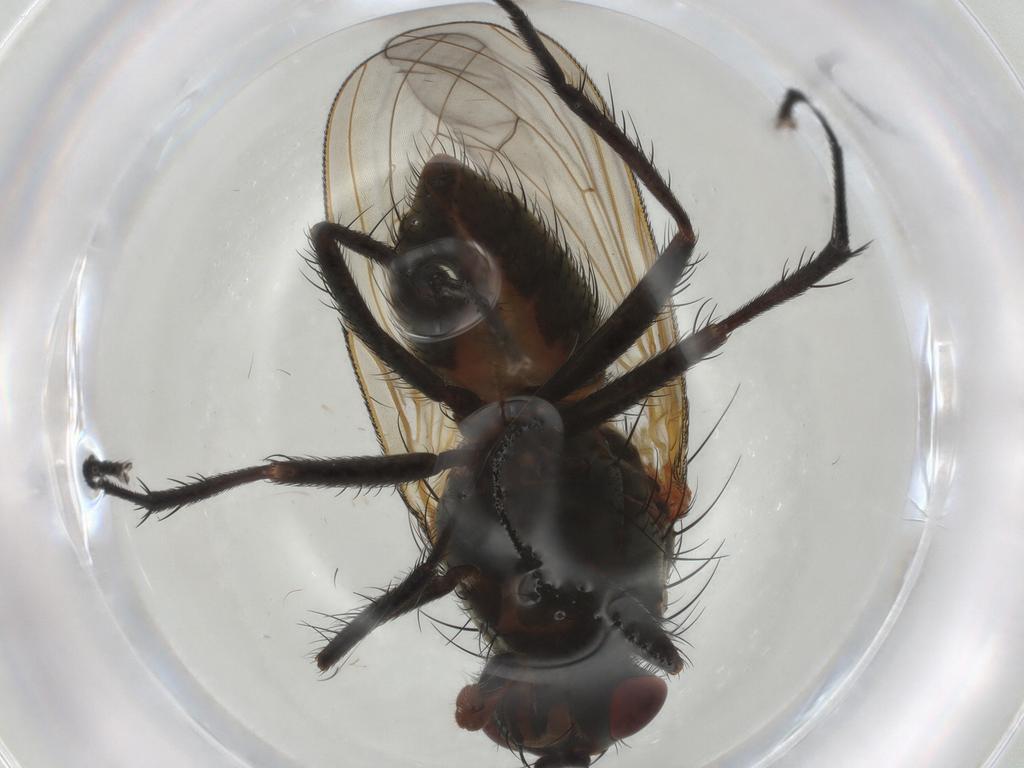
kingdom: Animalia
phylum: Arthropoda
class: Insecta
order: Diptera
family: Anthomyiidae
